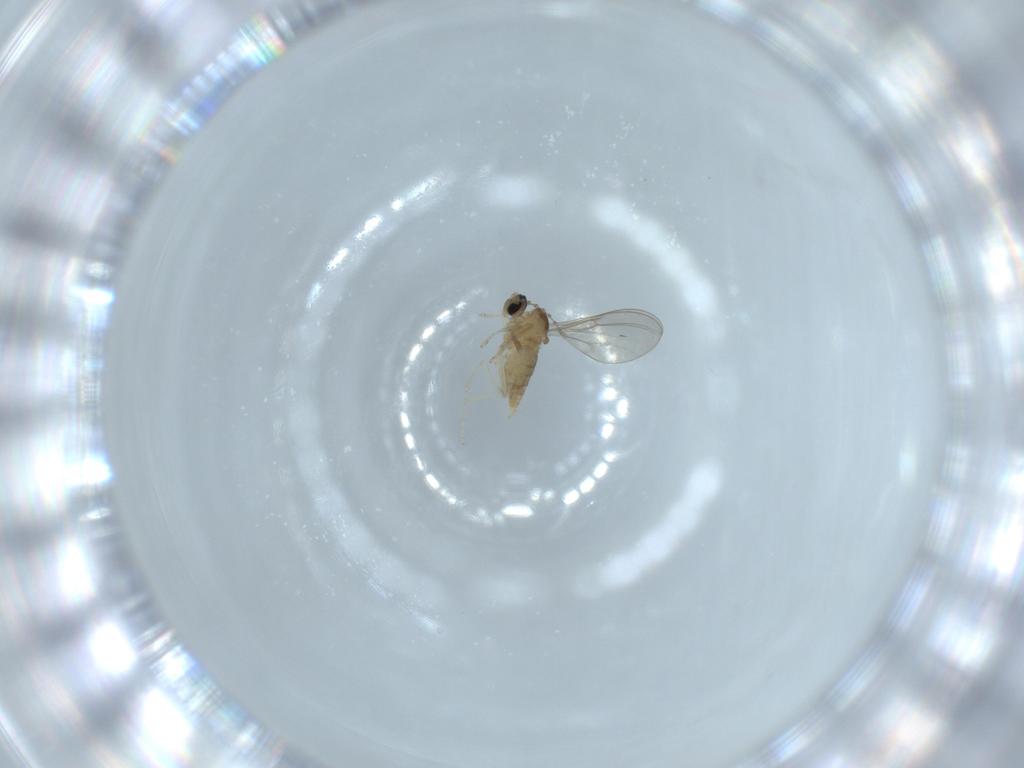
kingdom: Animalia
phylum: Arthropoda
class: Insecta
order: Diptera
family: Cecidomyiidae
